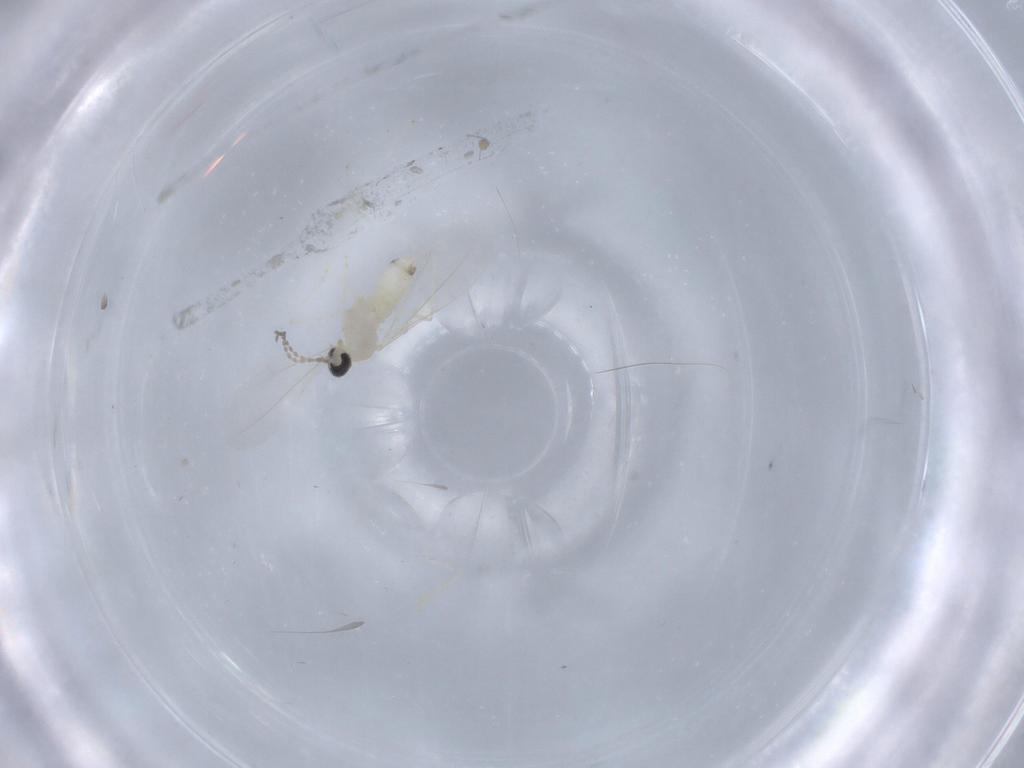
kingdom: Animalia
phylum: Arthropoda
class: Insecta
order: Diptera
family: Cecidomyiidae
